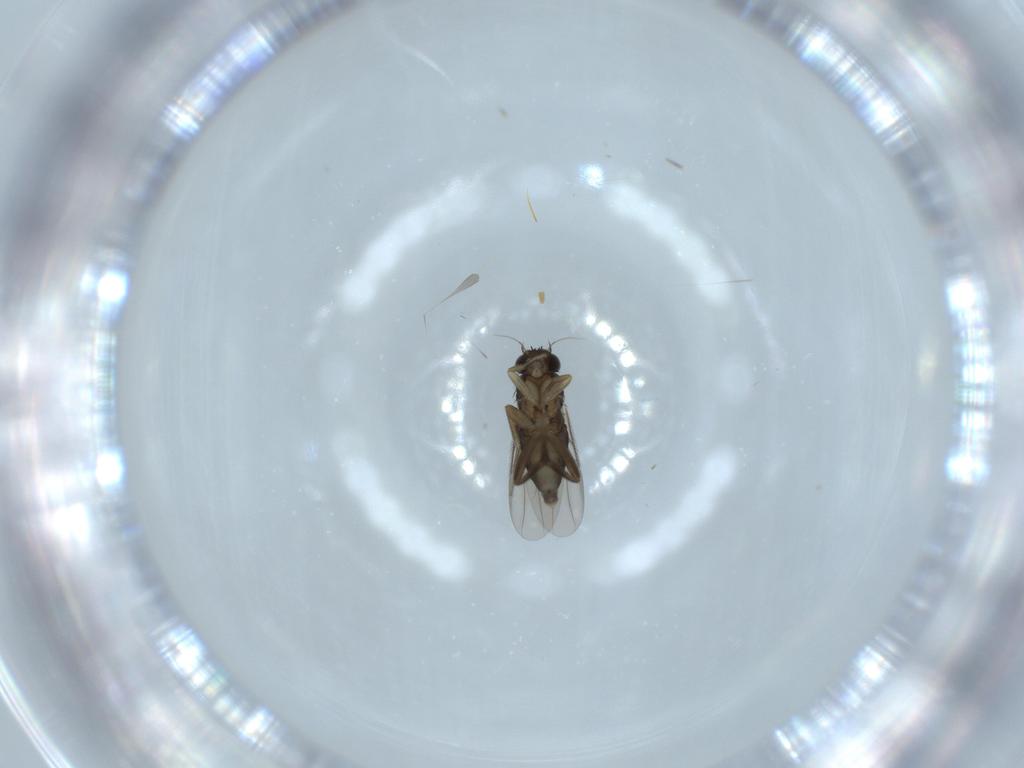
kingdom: Animalia
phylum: Arthropoda
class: Insecta
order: Diptera
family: Phoridae
